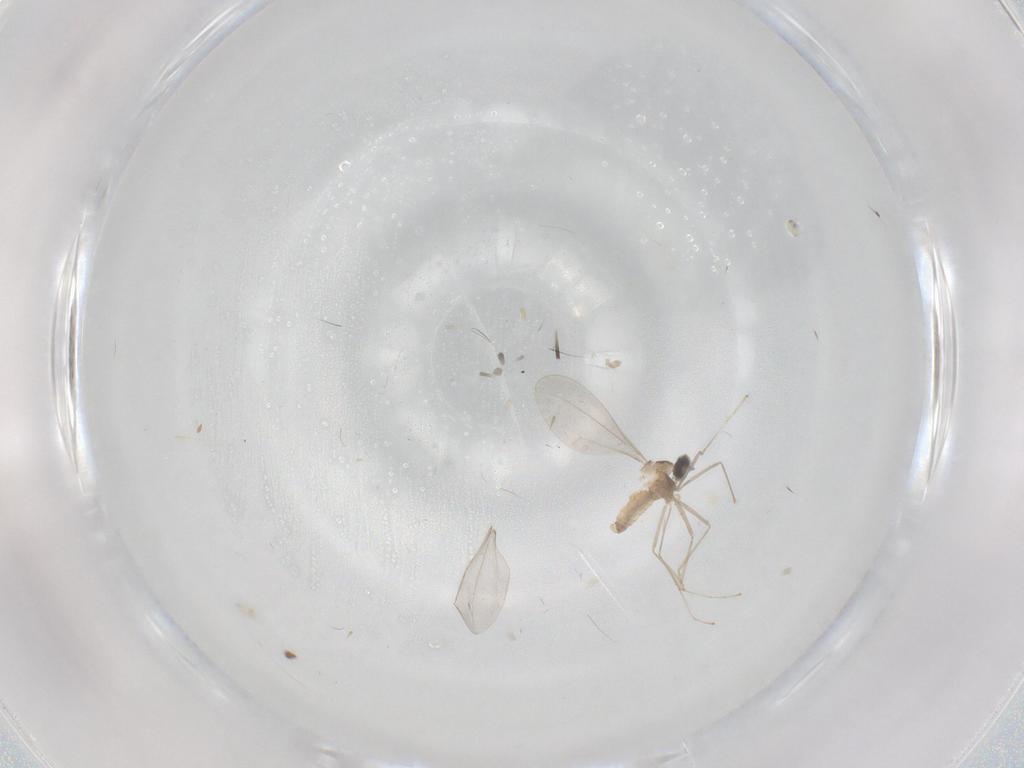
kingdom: Animalia
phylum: Arthropoda
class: Insecta
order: Diptera
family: Cecidomyiidae
